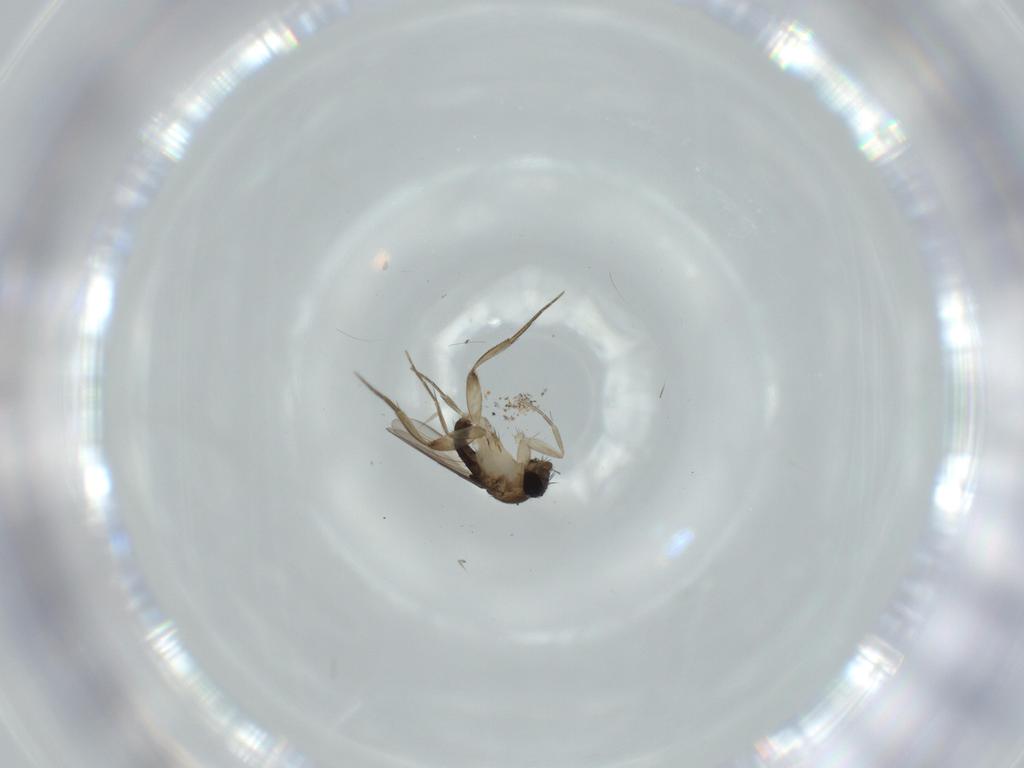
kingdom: Animalia
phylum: Arthropoda
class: Insecta
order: Diptera
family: Phoridae
